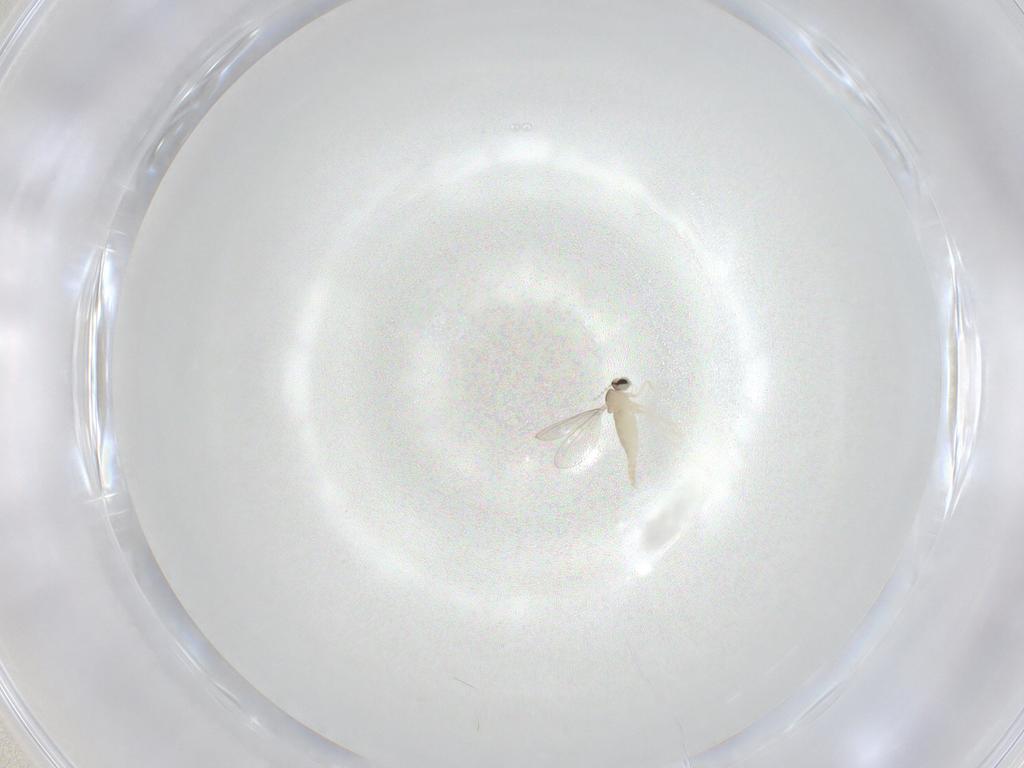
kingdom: Animalia
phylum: Arthropoda
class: Insecta
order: Diptera
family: Cecidomyiidae
